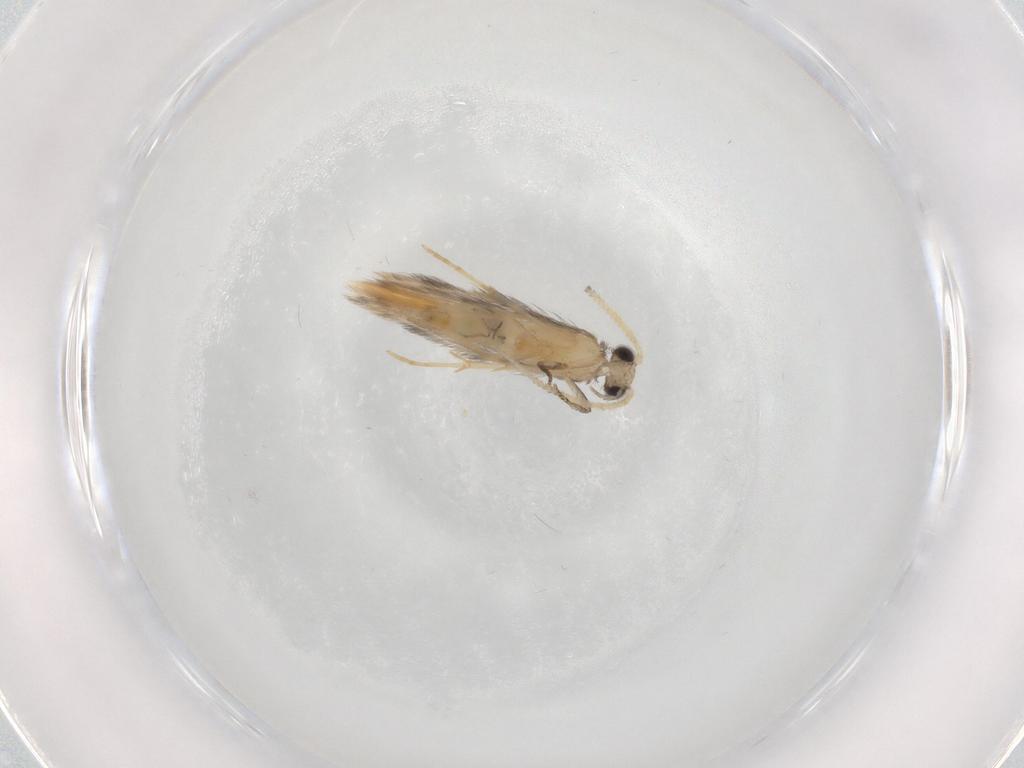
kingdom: Animalia
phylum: Arthropoda
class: Insecta
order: Trichoptera
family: Hydroptilidae
